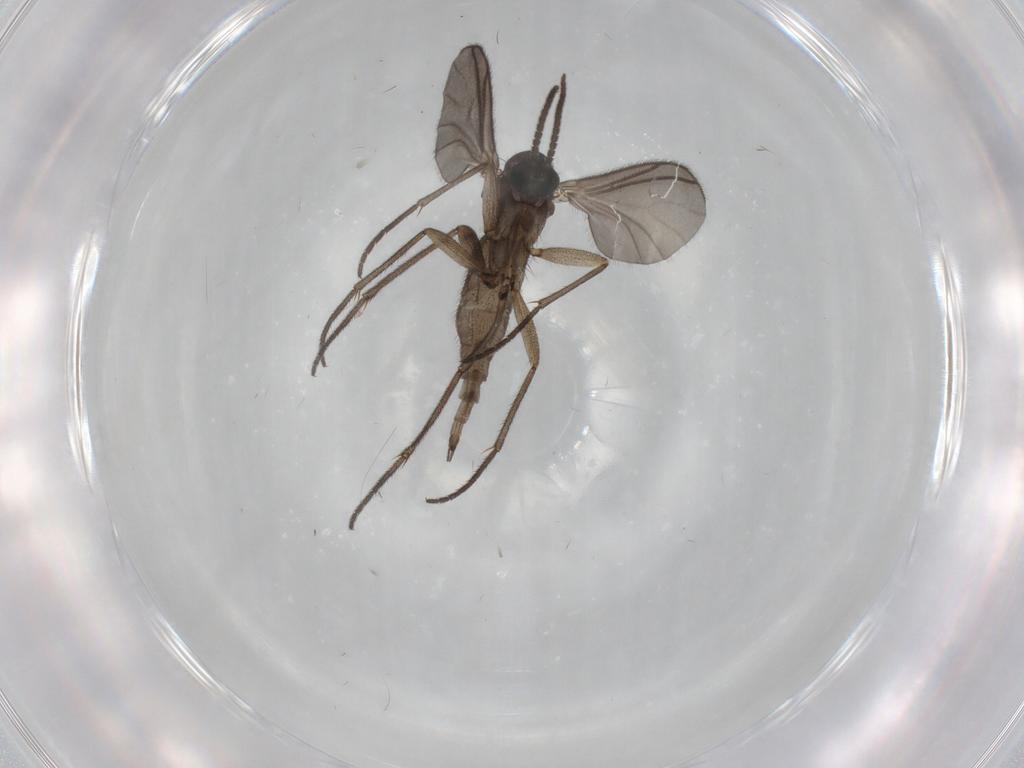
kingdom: Animalia
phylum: Arthropoda
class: Insecta
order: Diptera
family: Sciaridae
